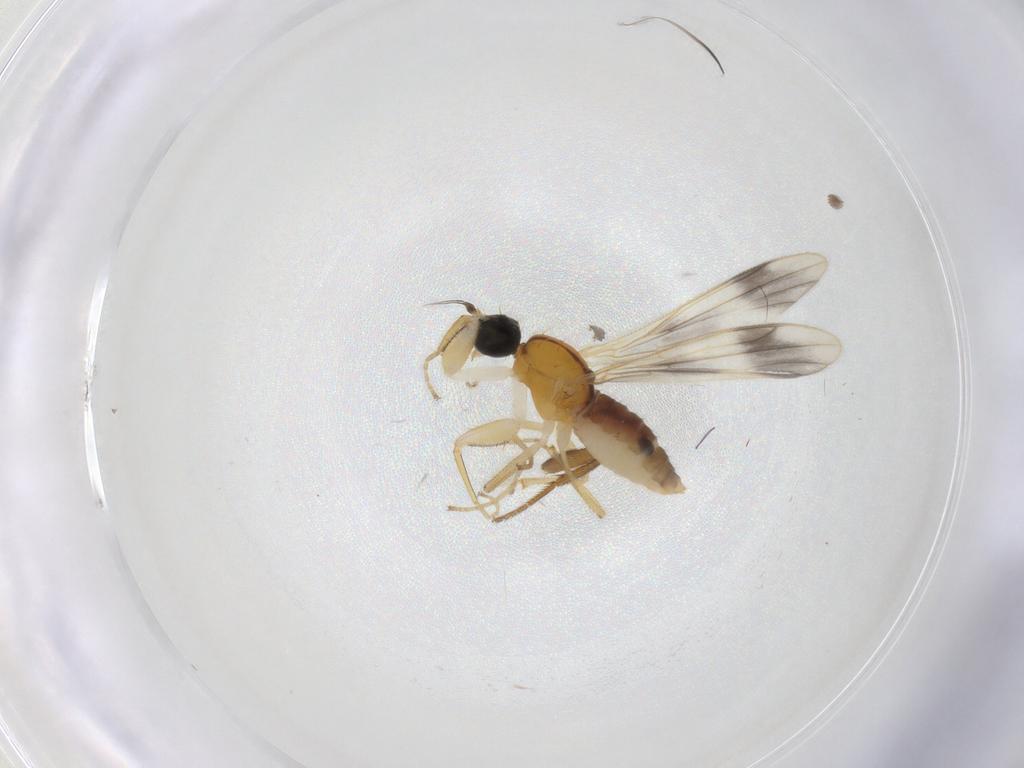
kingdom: Animalia
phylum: Arthropoda
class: Insecta
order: Diptera
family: Empididae
